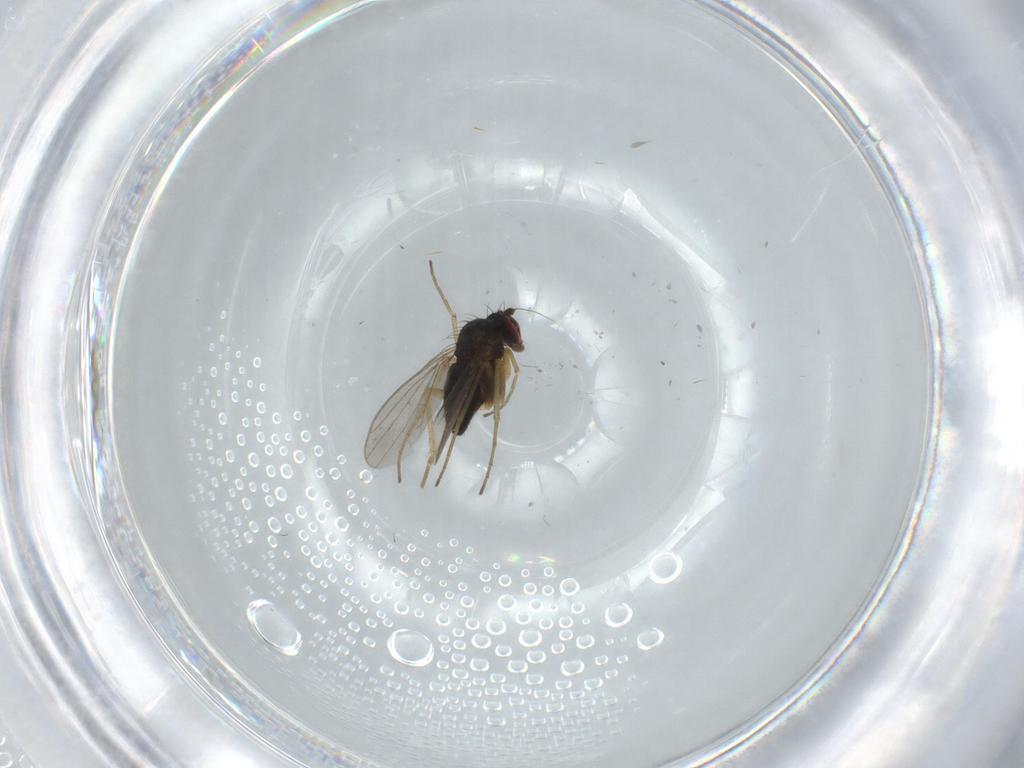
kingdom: Animalia
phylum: Arthropoda
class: Insecta
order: Diptera
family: Dolichopodidae
